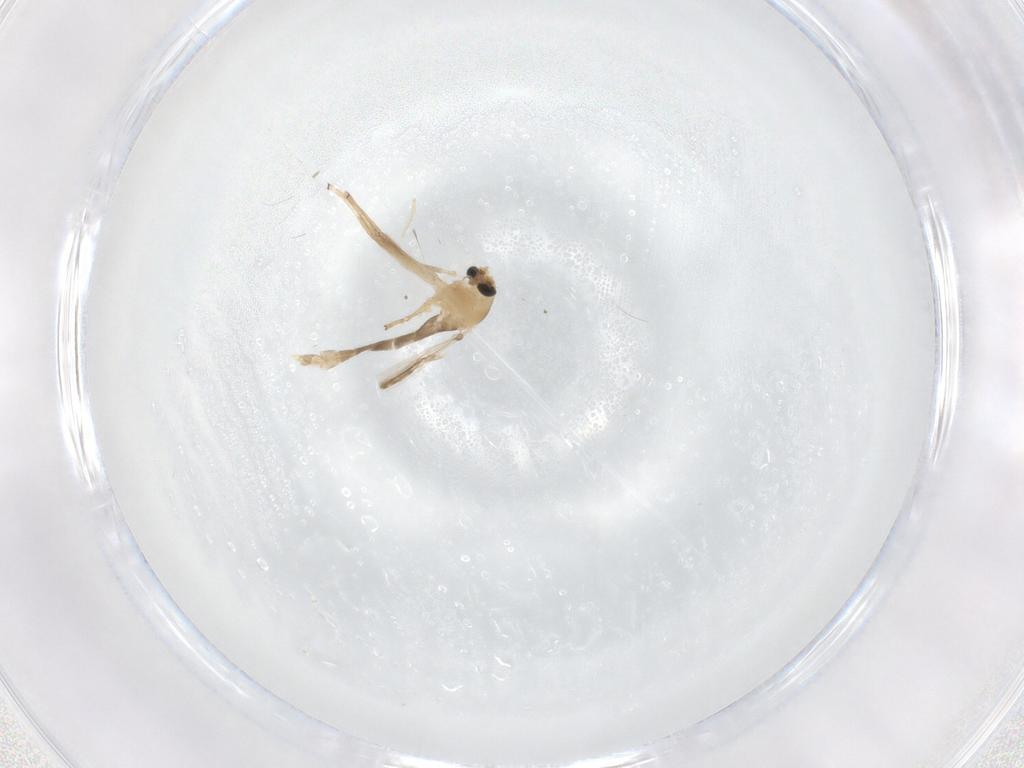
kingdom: Animalia
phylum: Arthropoda
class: Insecta
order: Diptera
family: Chironomidae
